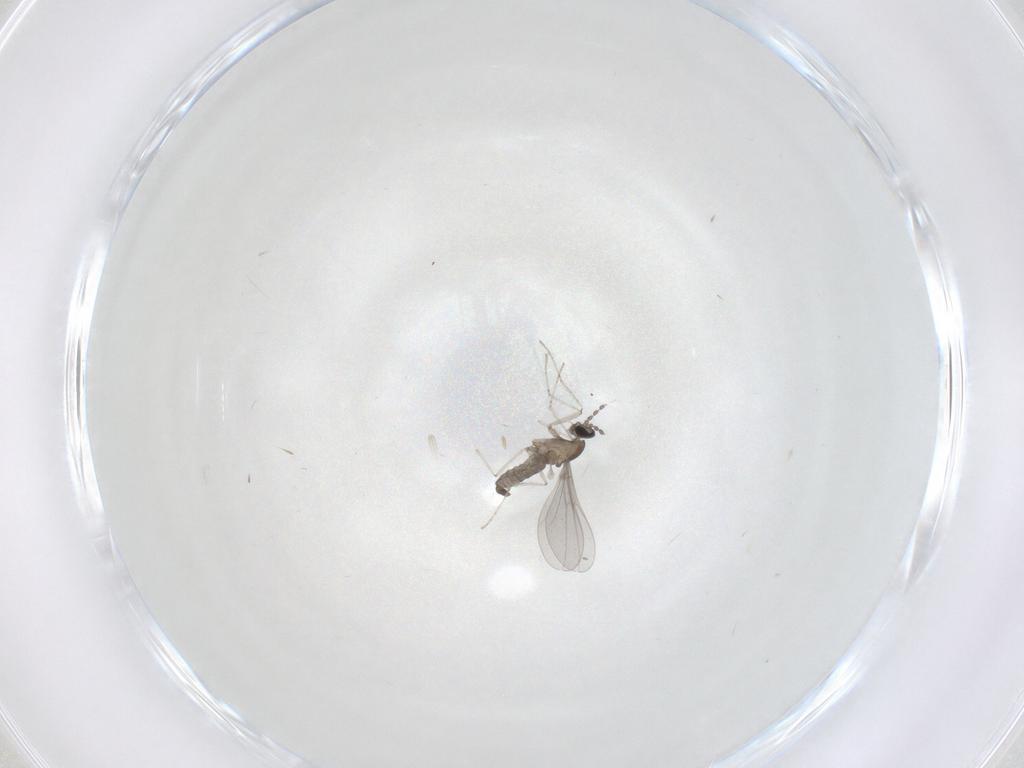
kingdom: Animalia
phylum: Arthropoda
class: Insecta
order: Diptera
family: Cecidomyiidae
